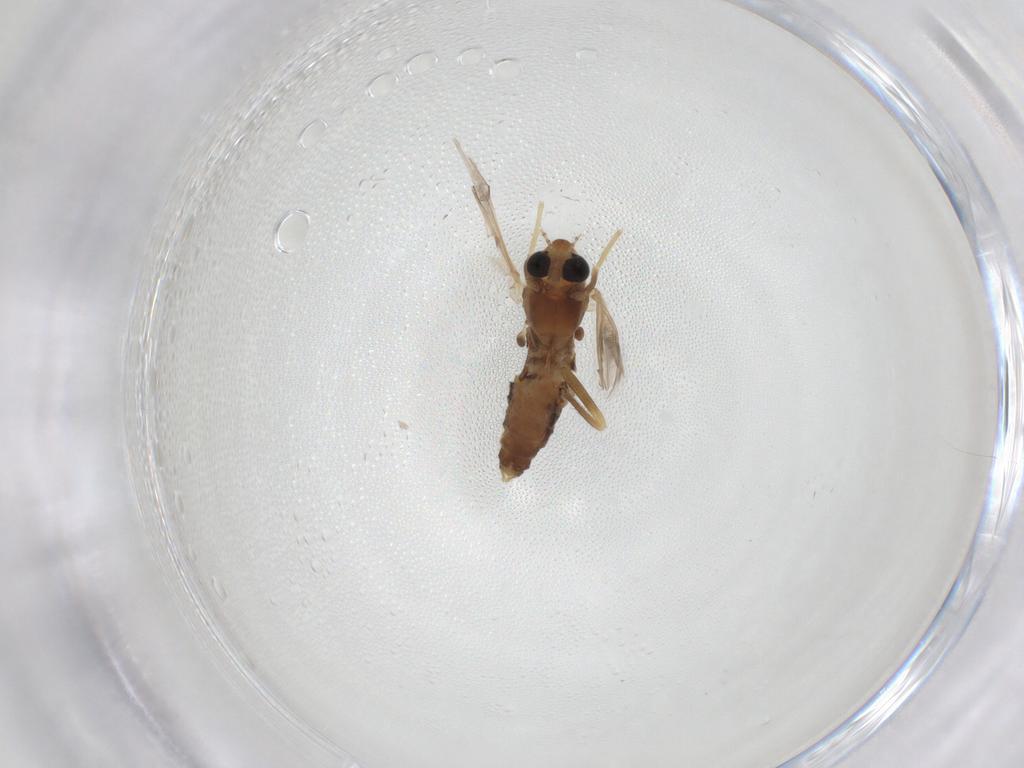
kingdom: Animalia
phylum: Arthropoda
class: Insecta
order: Diptera
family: Chironomidae
